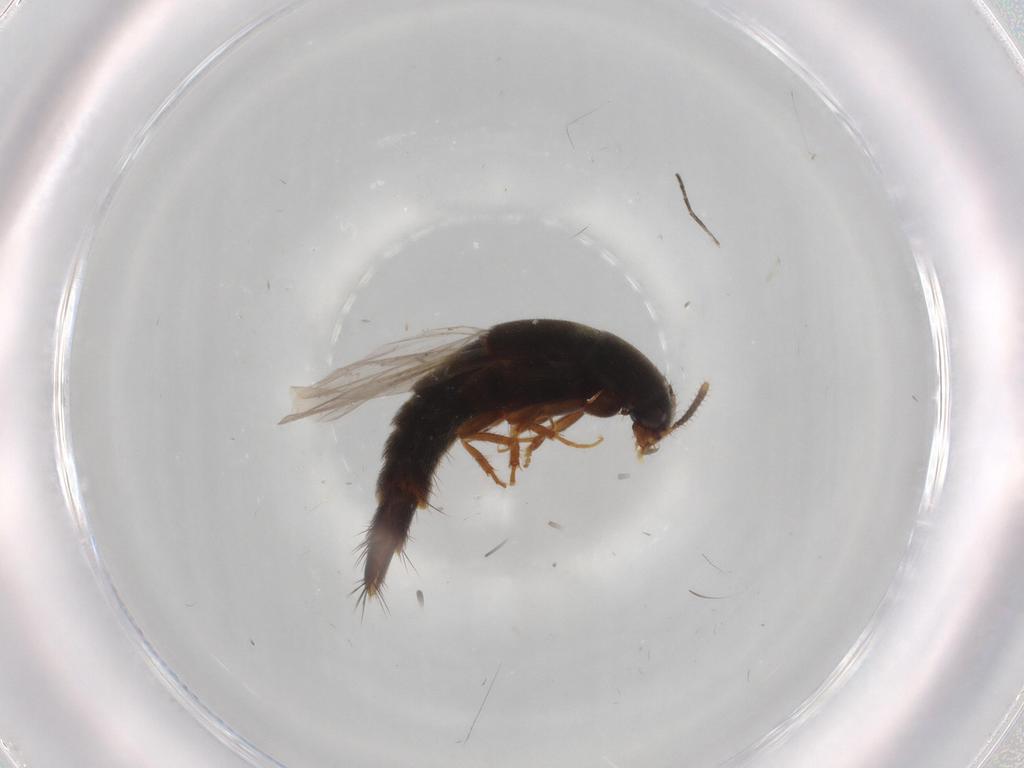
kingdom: Animalia
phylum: Arthropoda
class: Insecta
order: Coleoptera
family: Staphylinidae
